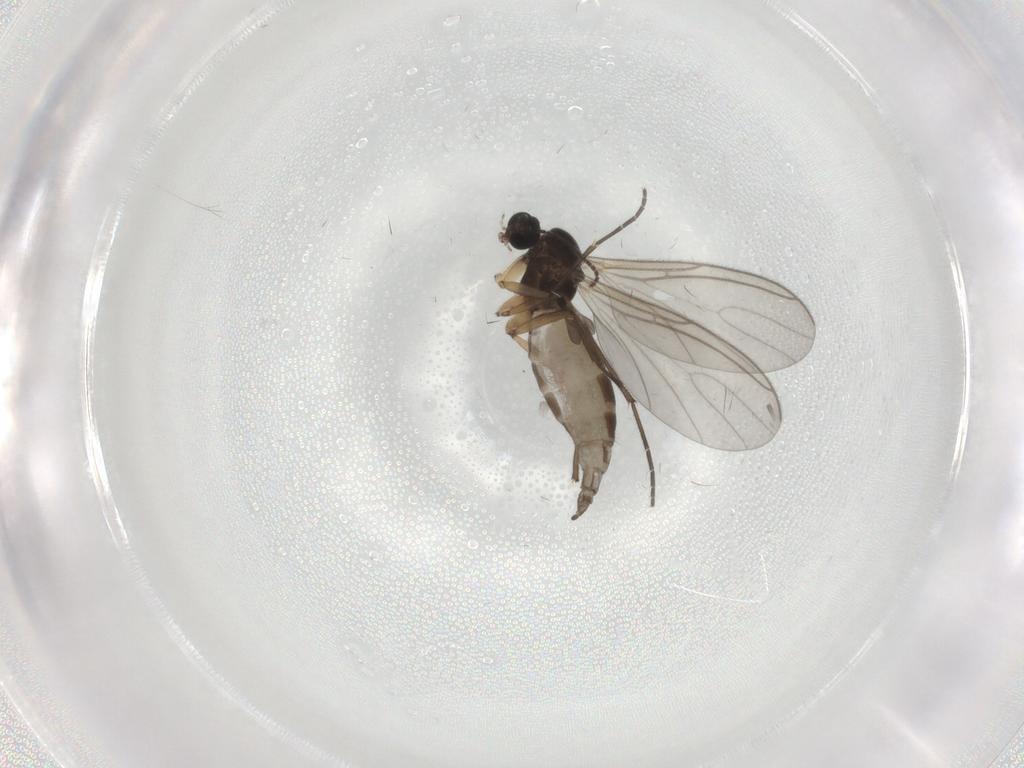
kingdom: Animalia
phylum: Arthropoda
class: Insecta
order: Diptera
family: Sciaridae
